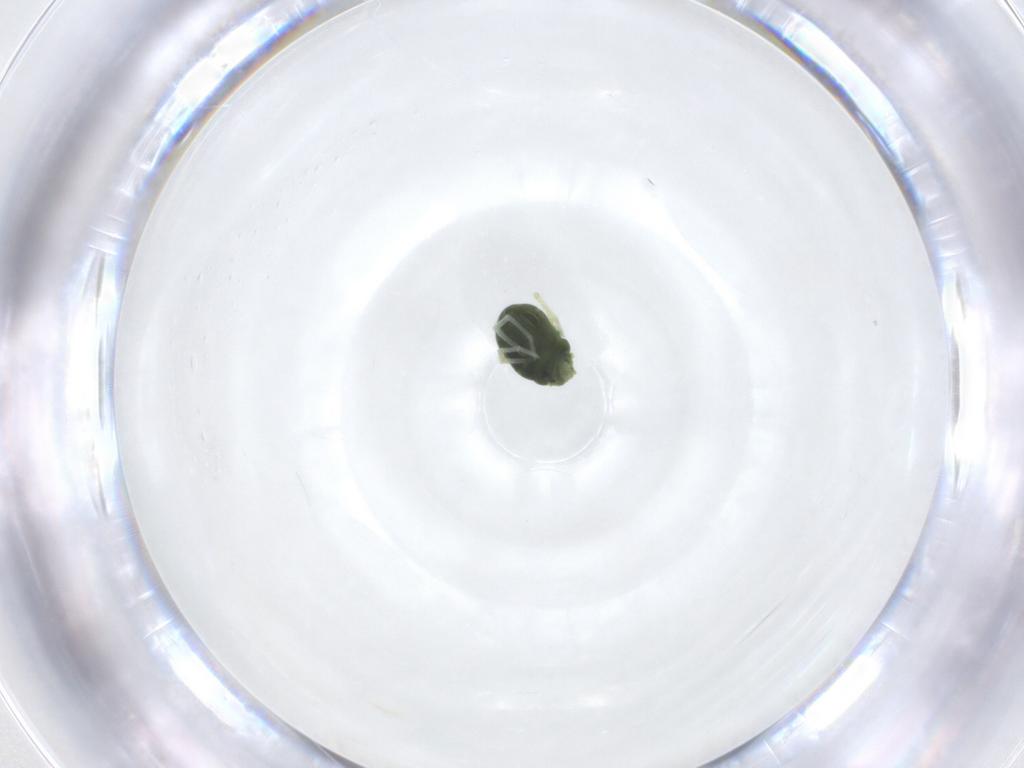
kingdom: Animalia
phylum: Arthropoda
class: Arachnida
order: Trombidiformes
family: Penthaleidae
